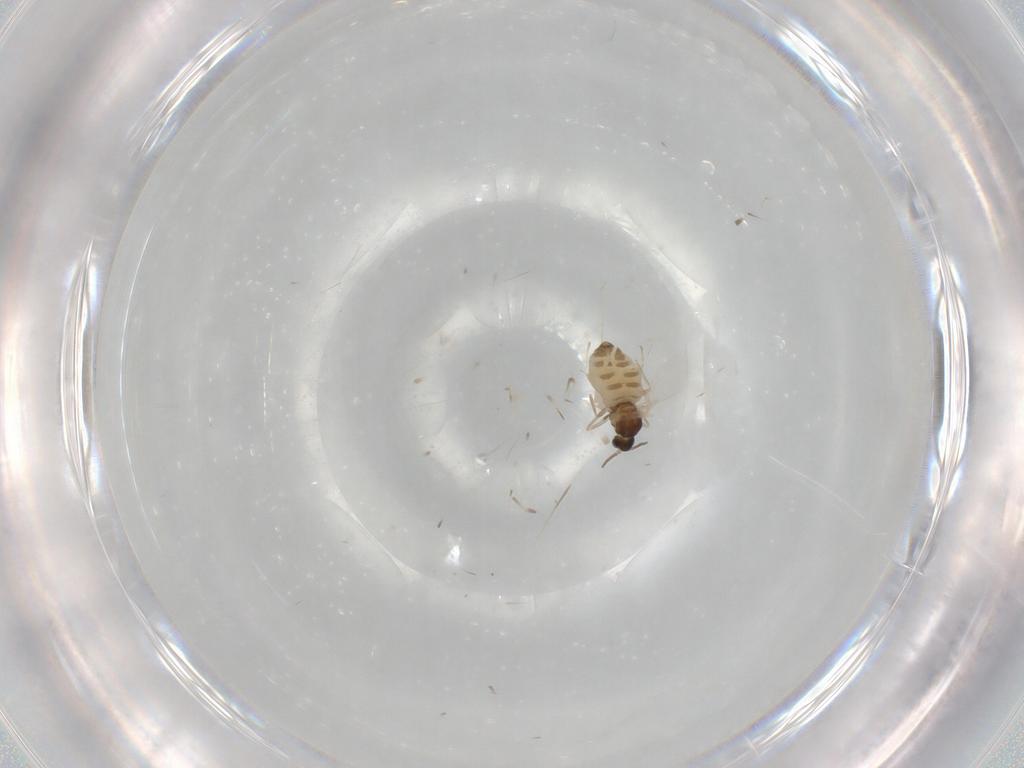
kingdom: Animalia
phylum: Arthropoda
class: Insecta
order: Diptera
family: Cecidomyiidae
